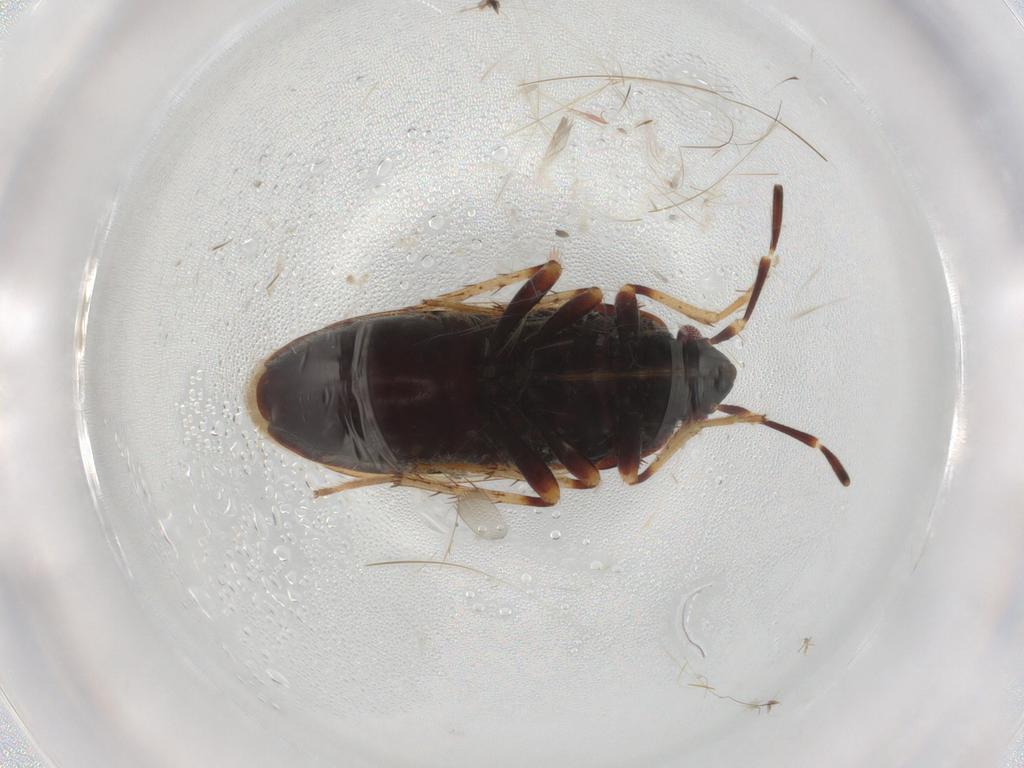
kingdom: Animalia
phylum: Arthropoda
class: Insecta
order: Hemiptera
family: Cicadellidae
